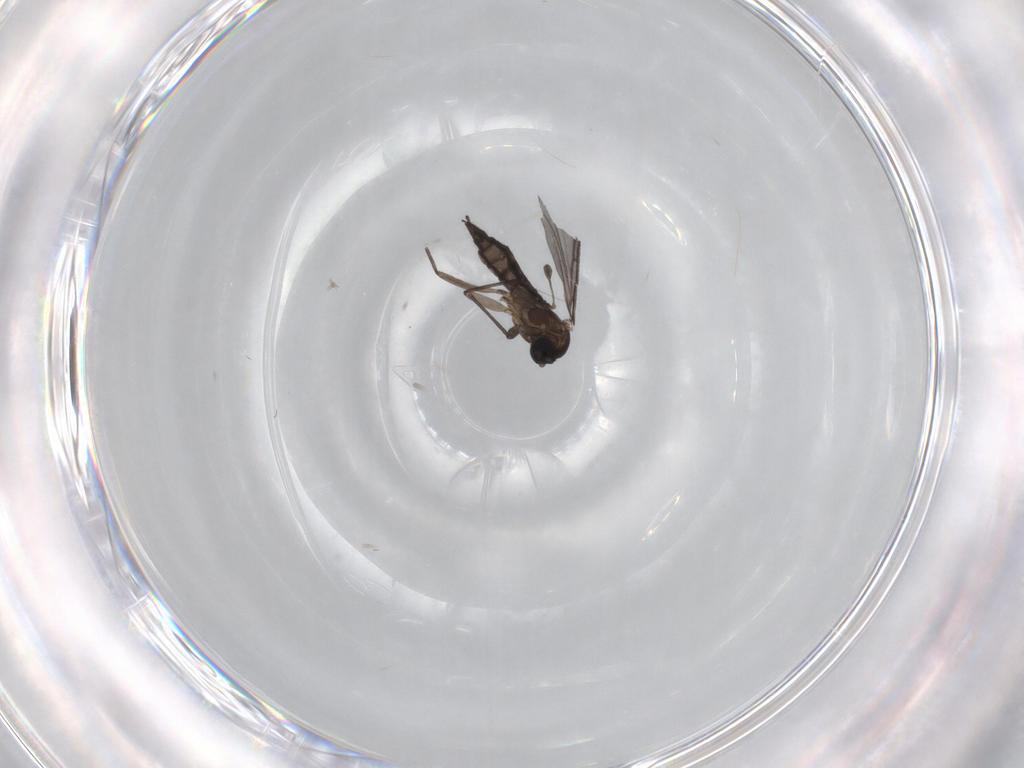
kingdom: Animalia
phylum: Arthropoda
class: Insecta
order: Diptera
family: Sciaridae
